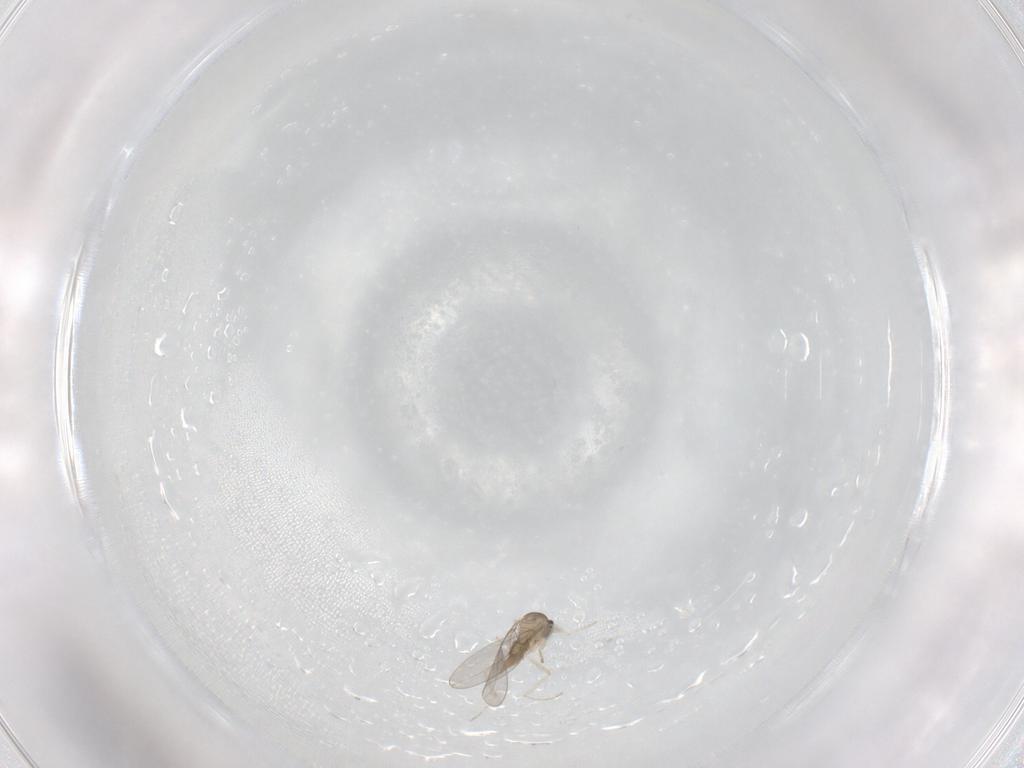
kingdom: Animalia
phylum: Arthropoda
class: Insecta
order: Diptera
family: Cecidomyiidae
